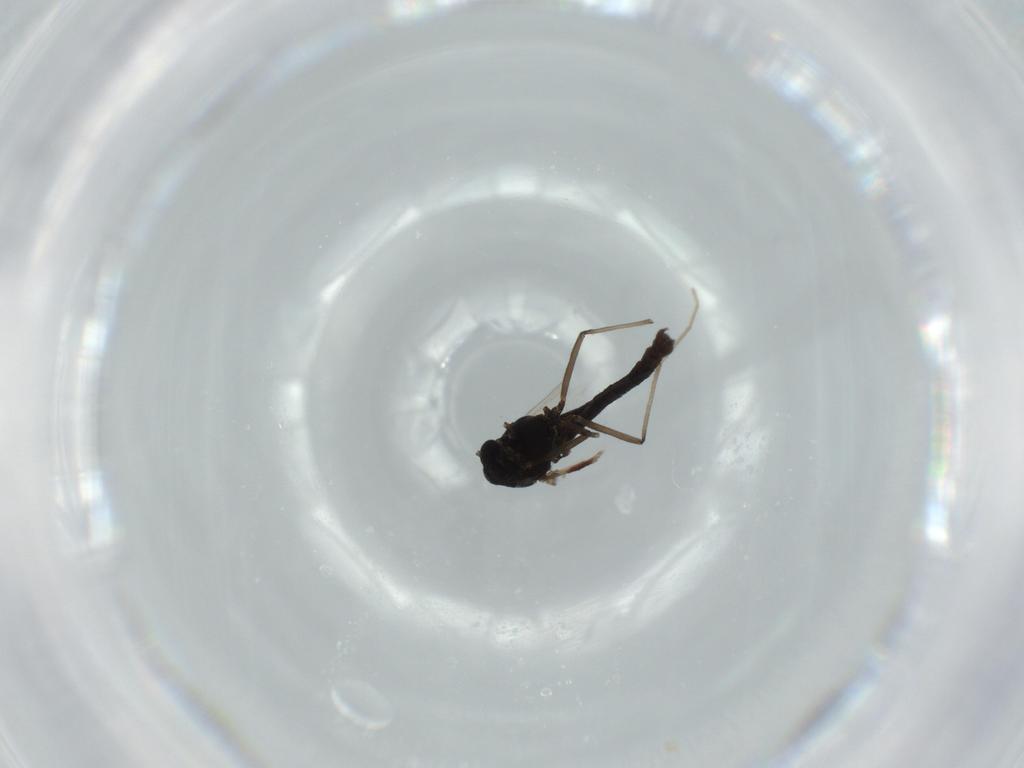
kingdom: Animalia
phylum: Arthropoda
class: Insecta
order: Diptera
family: Chironomidae
